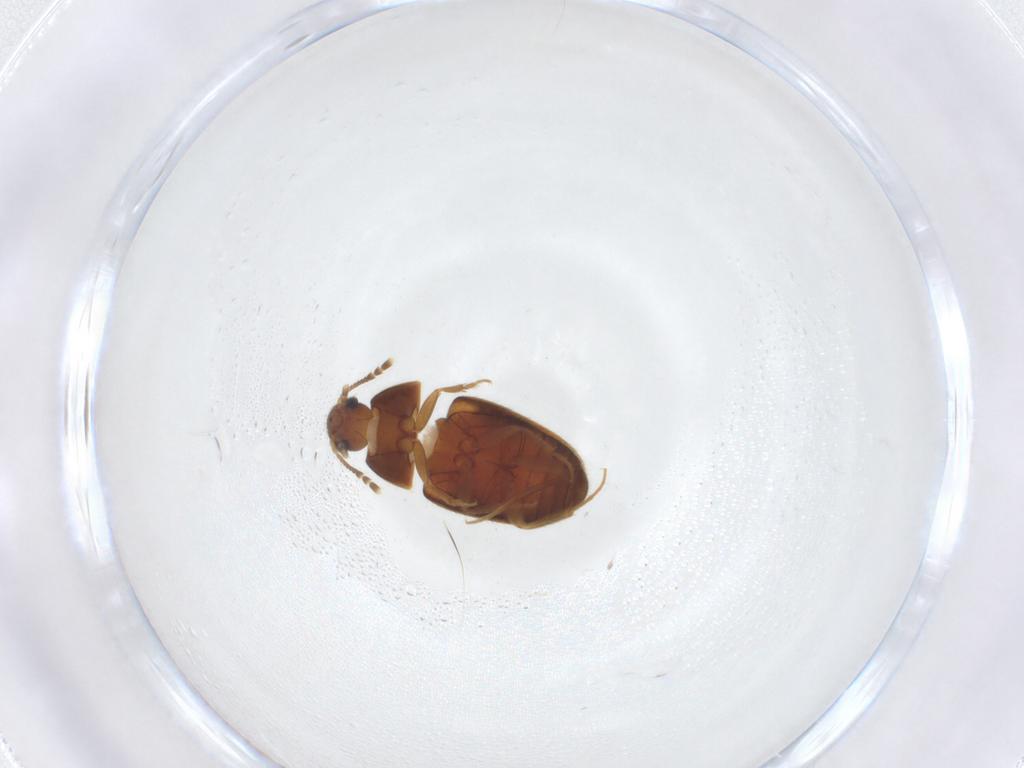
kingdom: Animalia
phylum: Arthropoda
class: Insecta
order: Coleoptera
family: Mycetophagidae
